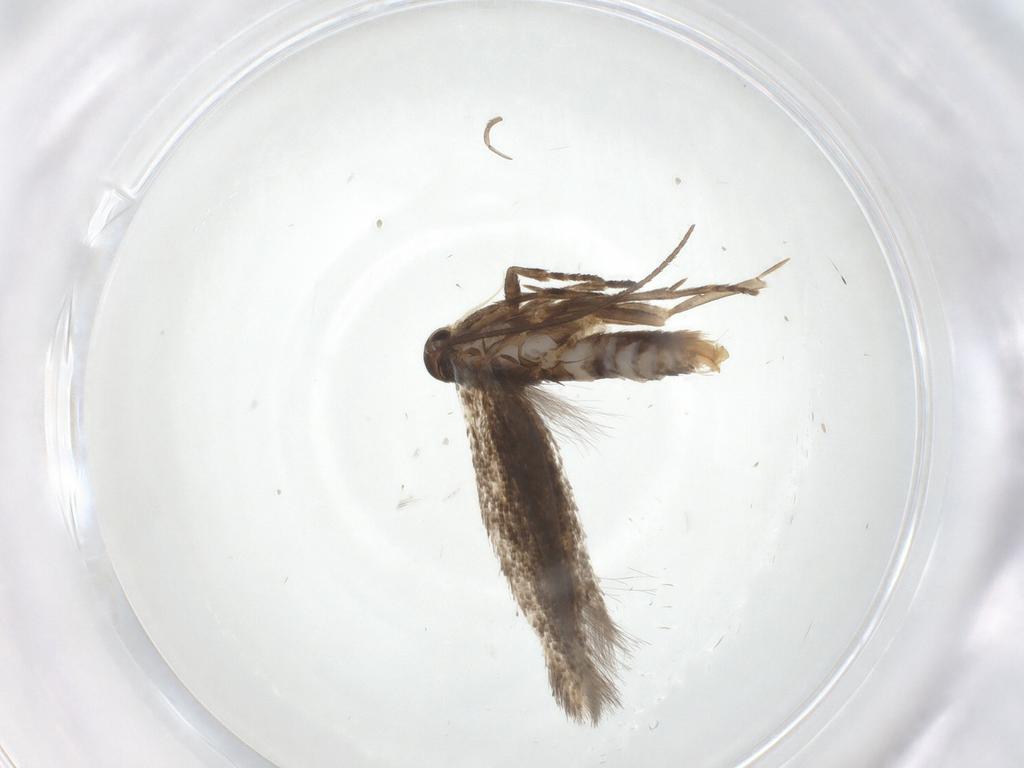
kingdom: Animalia
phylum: Arthropoda
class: Insecta
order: Lepidoptera
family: Elachistidae
